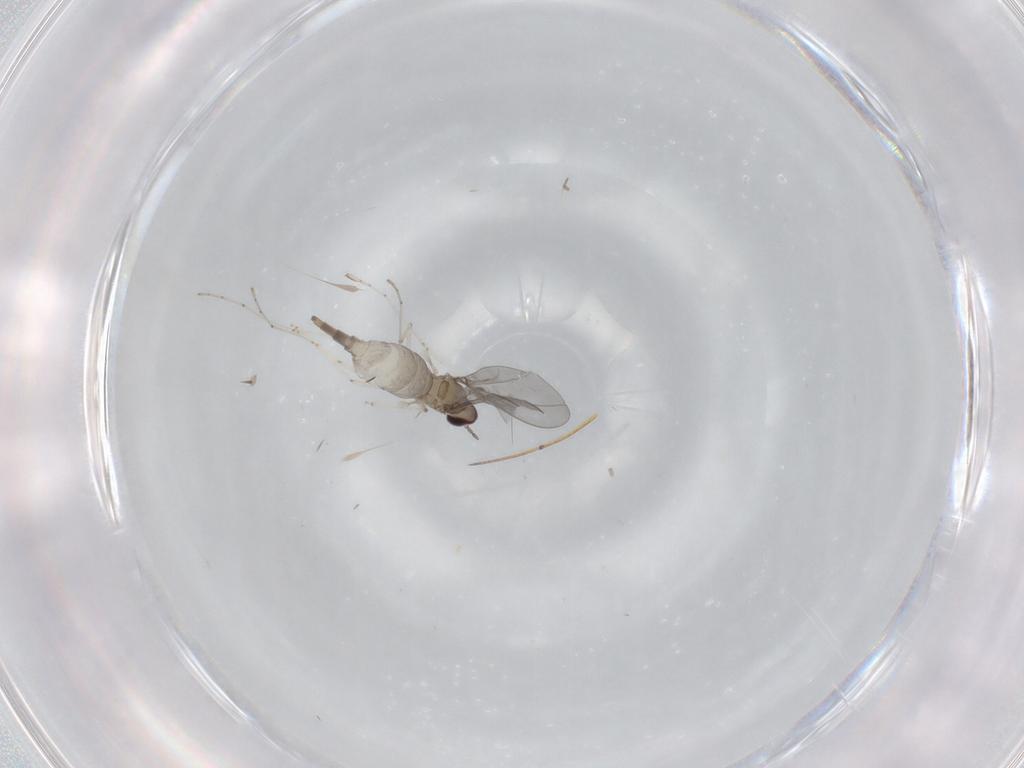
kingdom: Animalia
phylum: Arthropoda
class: Insecta
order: Diptera
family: Cecidomyiidae
